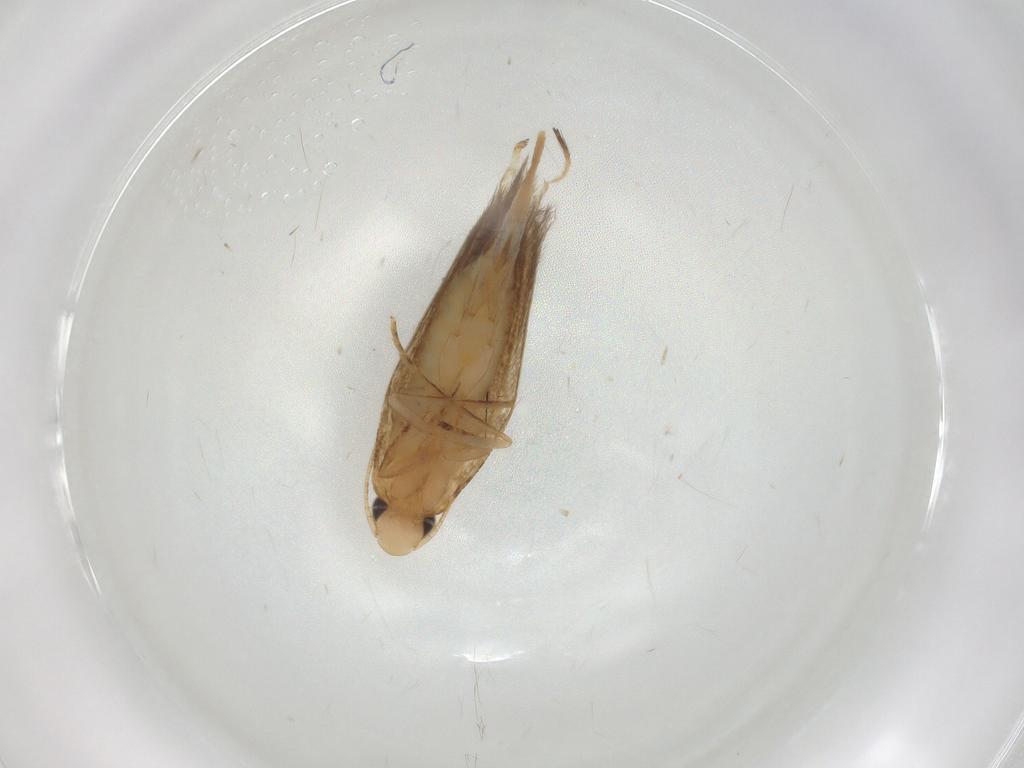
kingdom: Animalia
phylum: Arthropoda
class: Insecta
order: Lepidoptera
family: Tineidae
